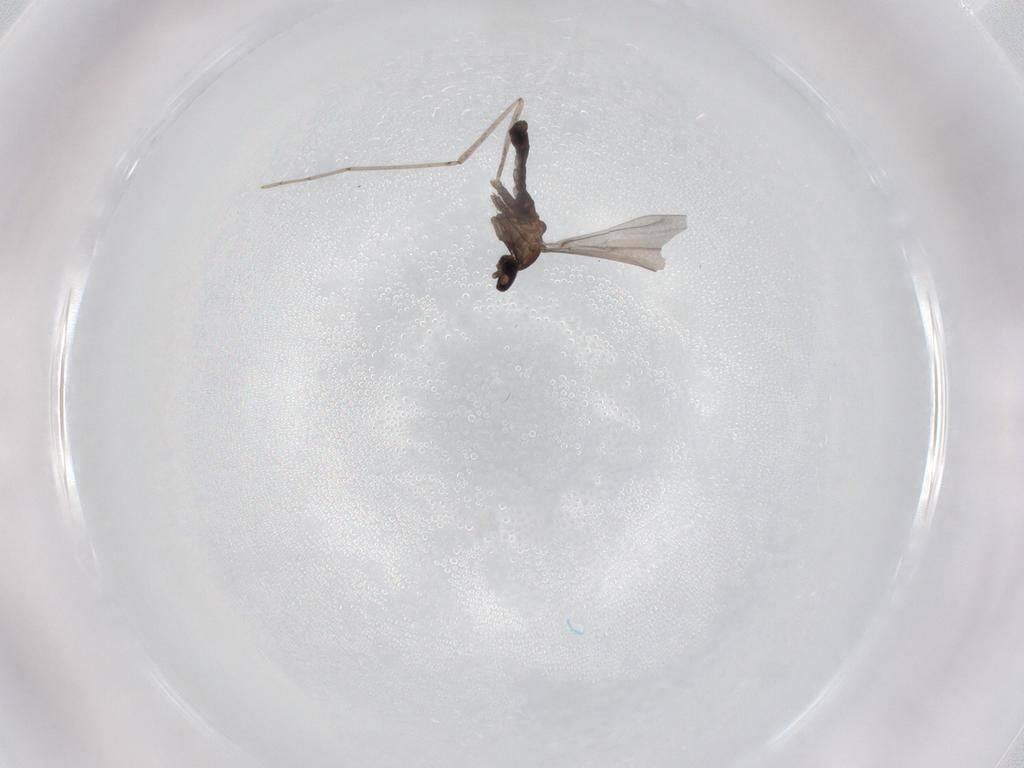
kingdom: Animalia
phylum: Arthropoda
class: Insecta
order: Diptera
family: Cecidomyiidae
